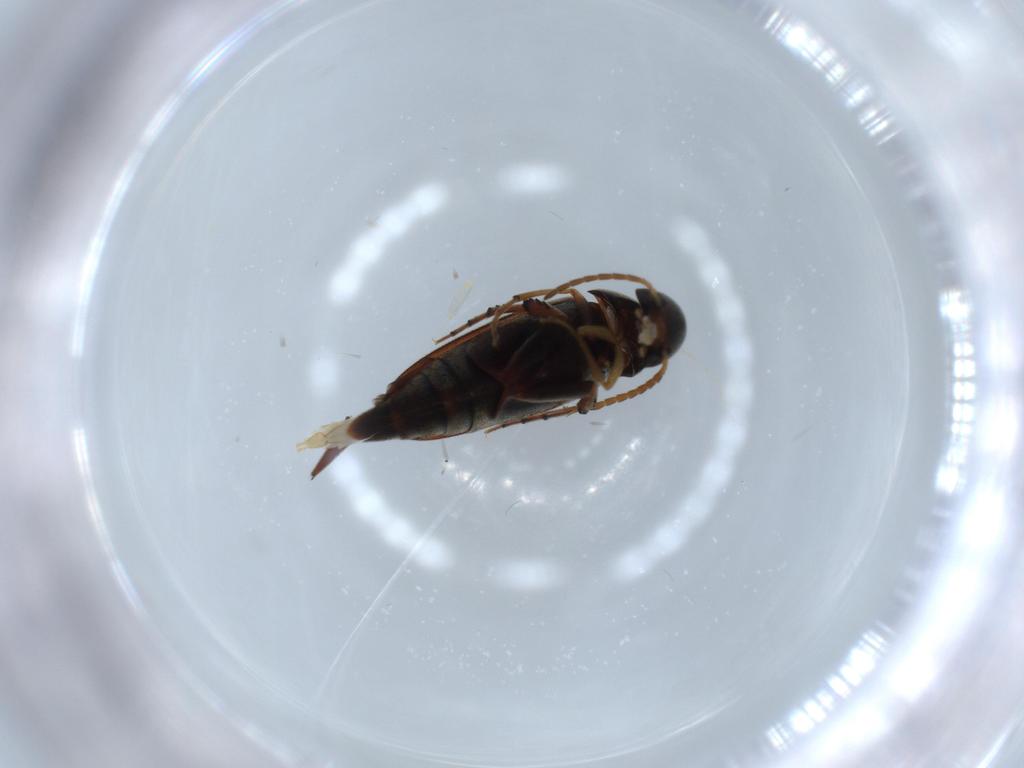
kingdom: Animalia
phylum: Arthropoda
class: Insecta
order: Coleoptera
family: Mordellidae
